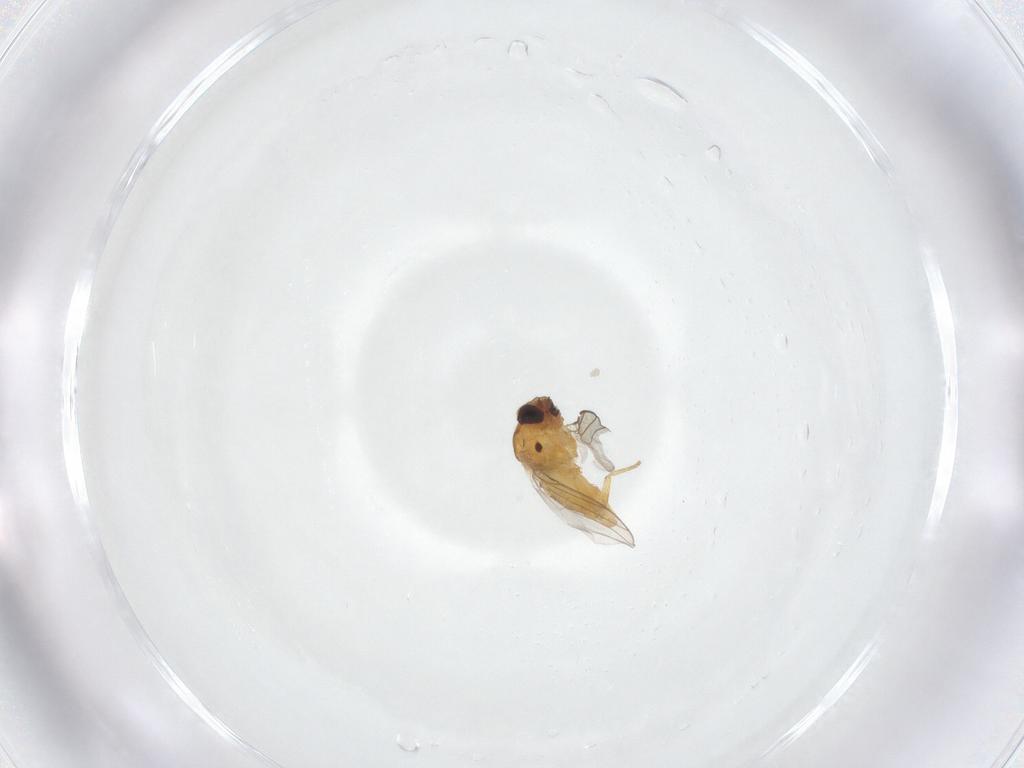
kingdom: Animalia
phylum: Arthropoda
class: Insecta
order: Diptera
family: Chloropidae
